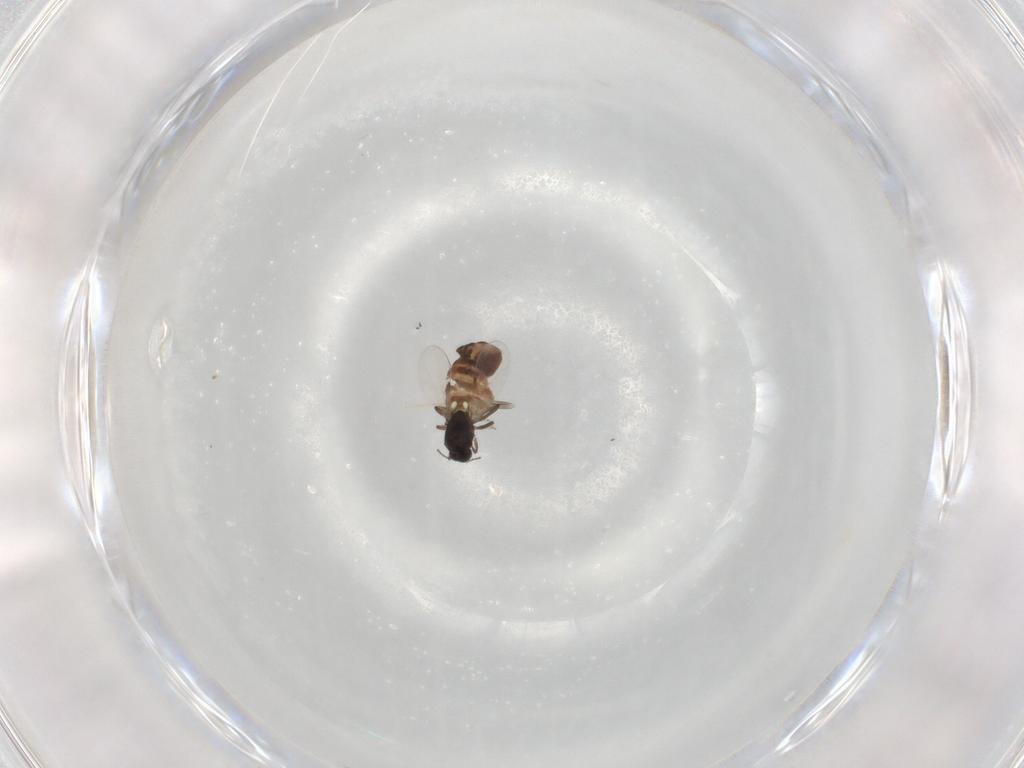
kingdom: Animalia
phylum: Arthropoda
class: Insecta
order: Diptera
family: Ceratopogonidae
